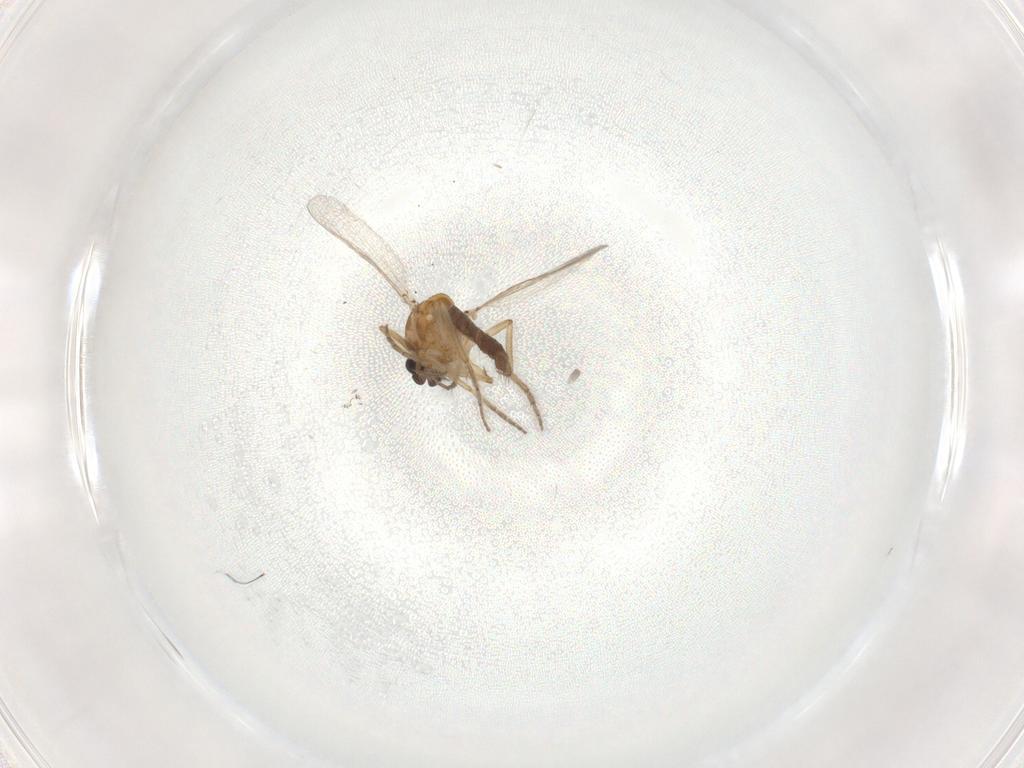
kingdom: Animalia
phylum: Arthropoda
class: Insecta
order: Diptera
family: Ceratopogonidae
